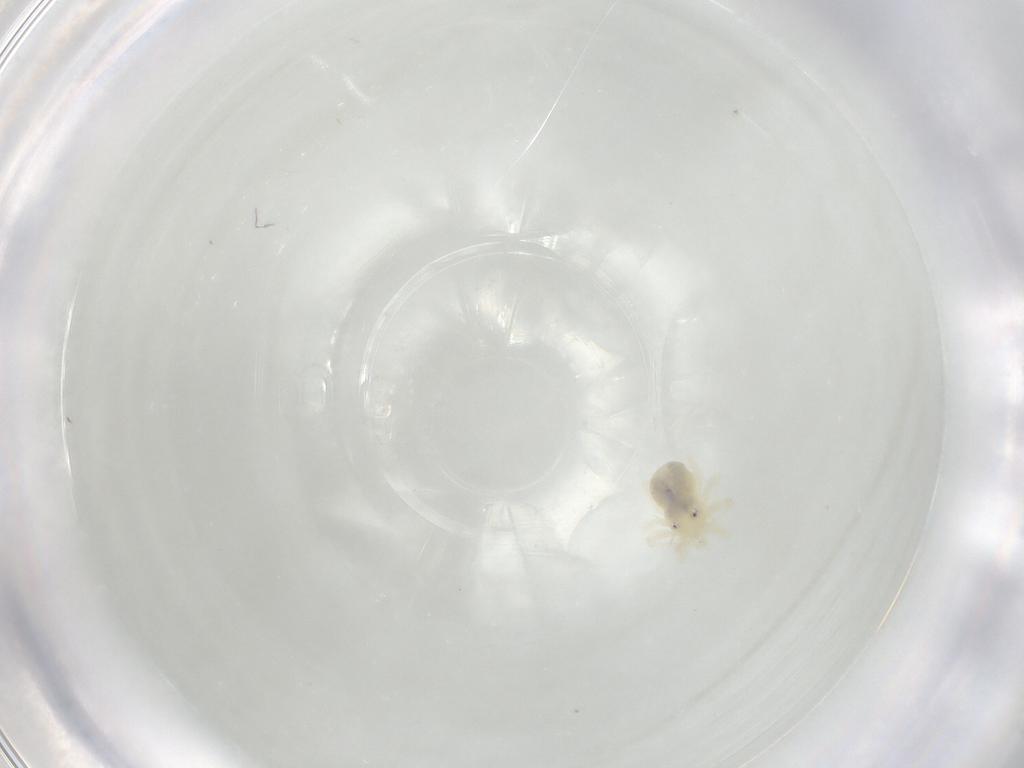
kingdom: Animalia
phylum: Arthropoda
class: Arachnida
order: Trombidiformes
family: Anystidae
